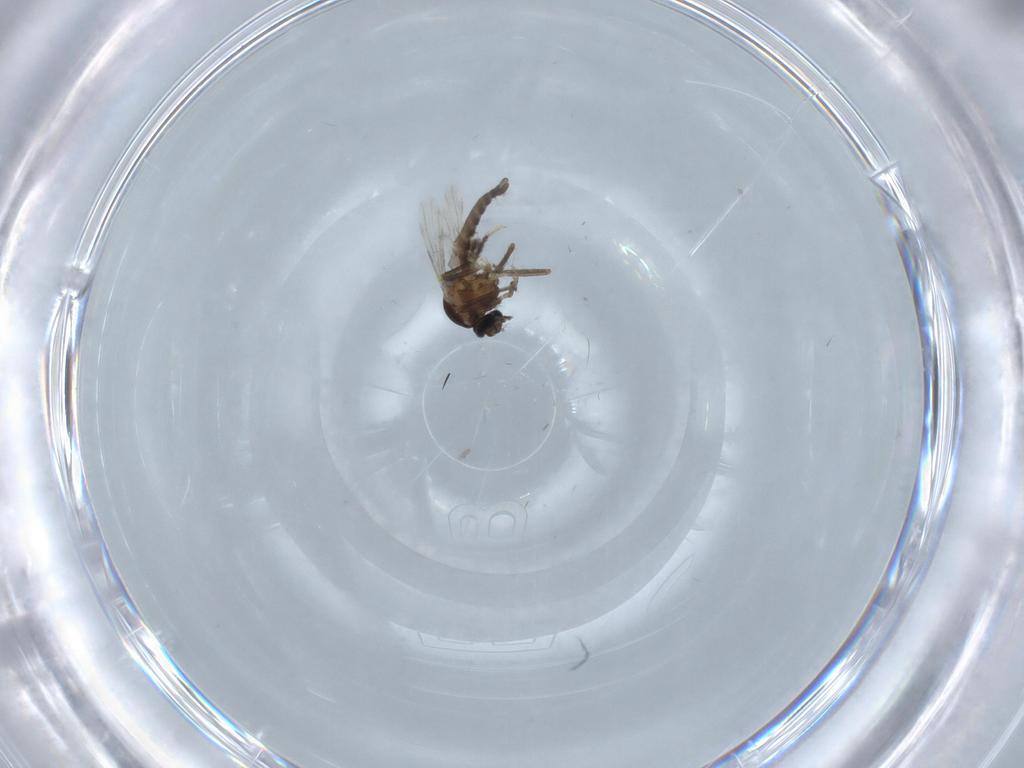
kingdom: Animalia
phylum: Arthropoda
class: Insecta
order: Diptera
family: Ceratopogonidae
